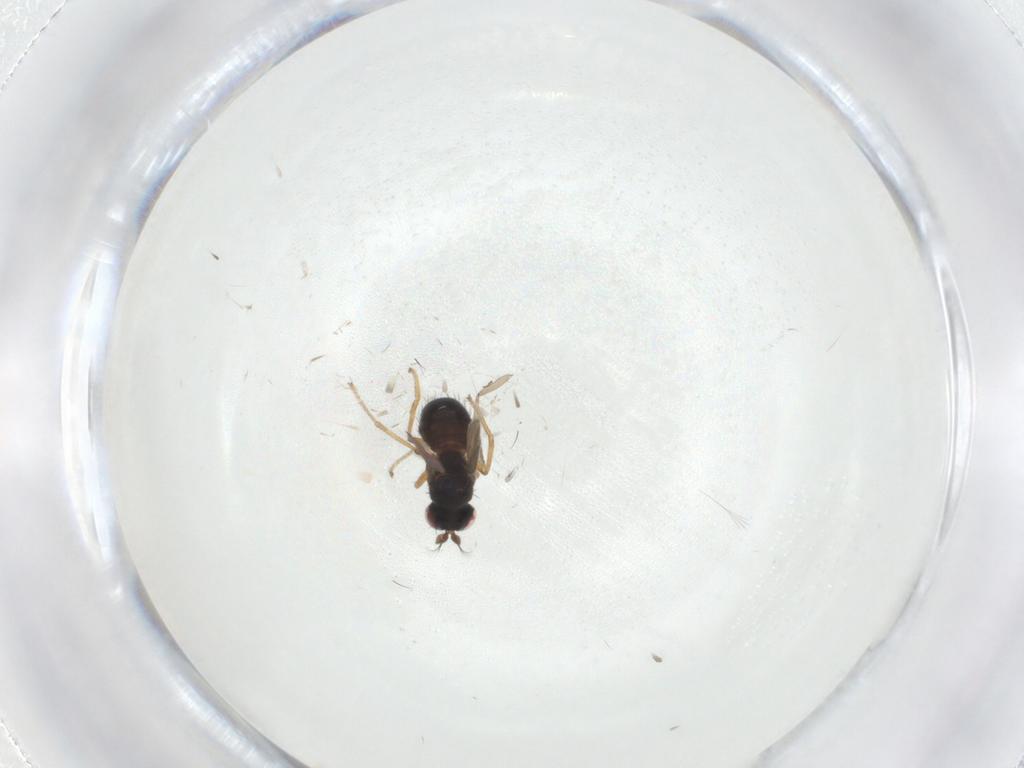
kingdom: Animalia
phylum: Arthropoda
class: Insecta
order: Diptera
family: Ephydridae
